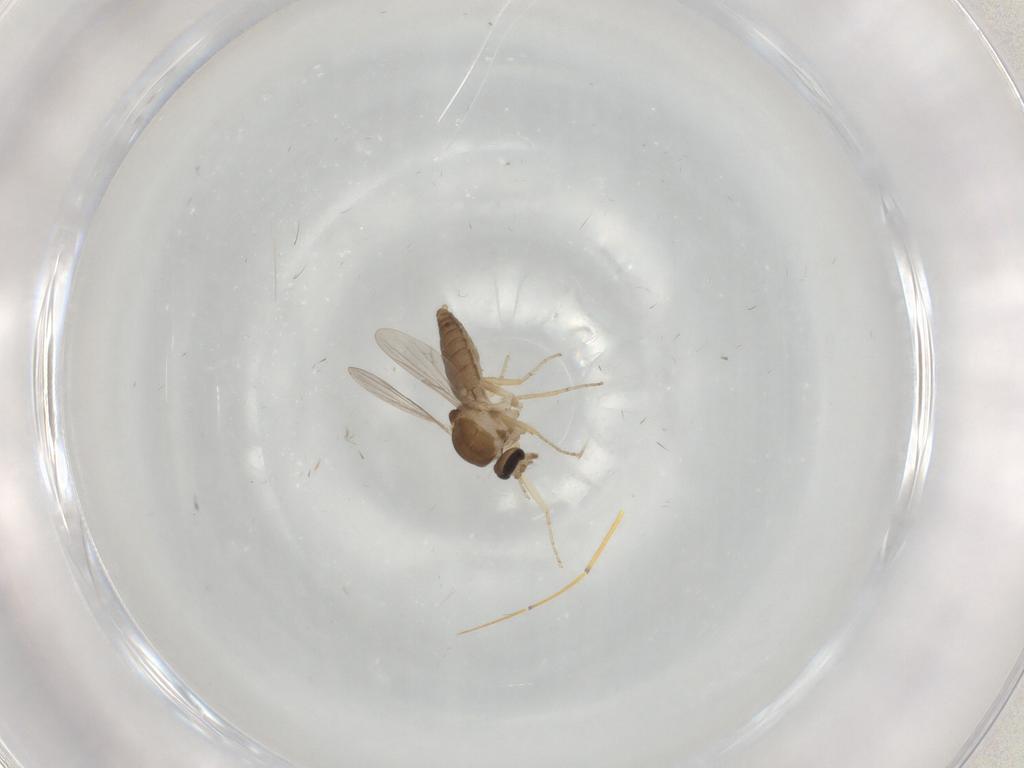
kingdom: Animalia
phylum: Arthropoda
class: Insecta
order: Diptera
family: Ceratopogonidae
